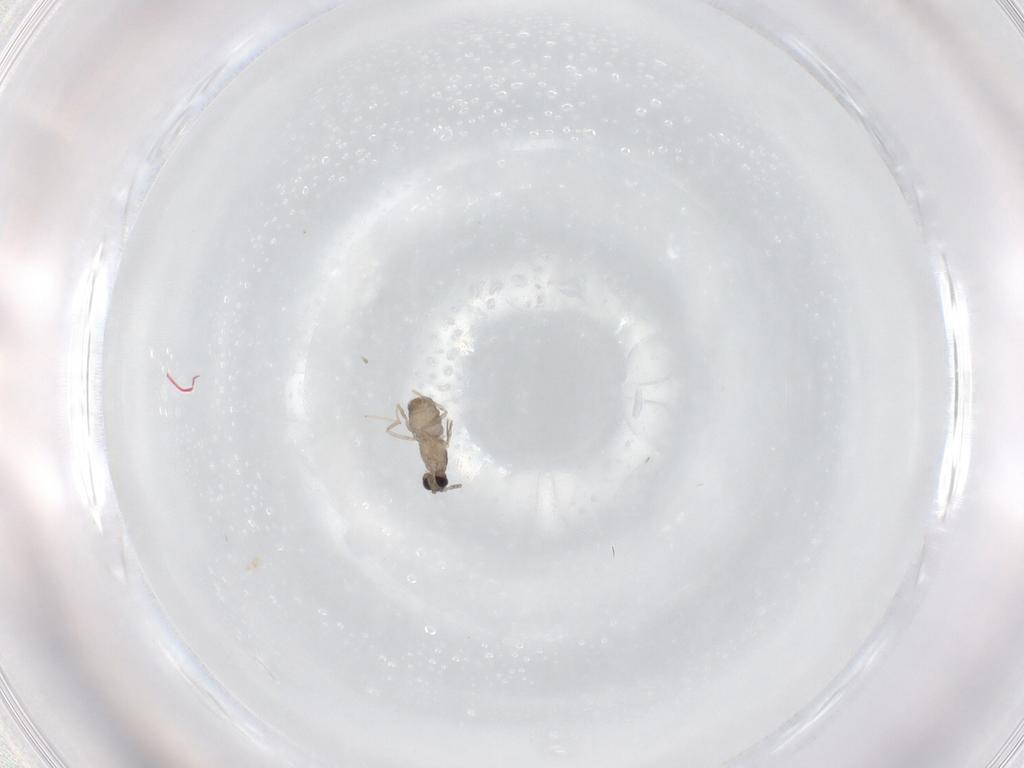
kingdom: Animalia
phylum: Arthropoda
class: Insecta
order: Diptera
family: Cecidomyiidae
